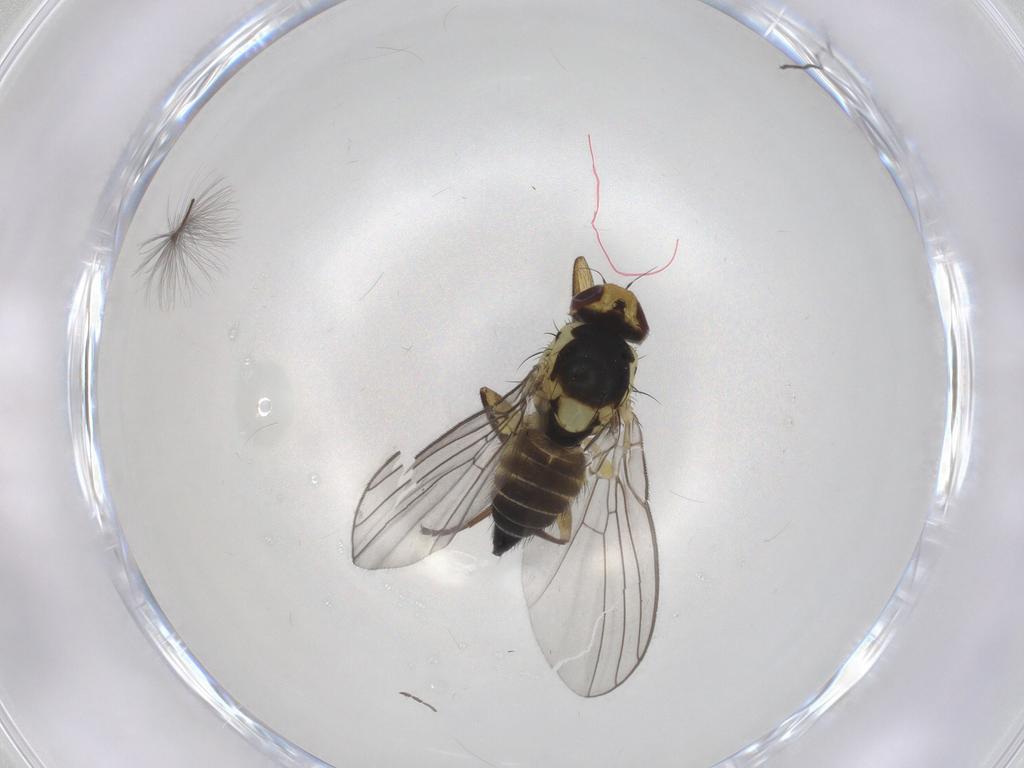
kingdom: Animalia
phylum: Arthropoda
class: Insecta
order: Diptera
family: Agromyzidae
